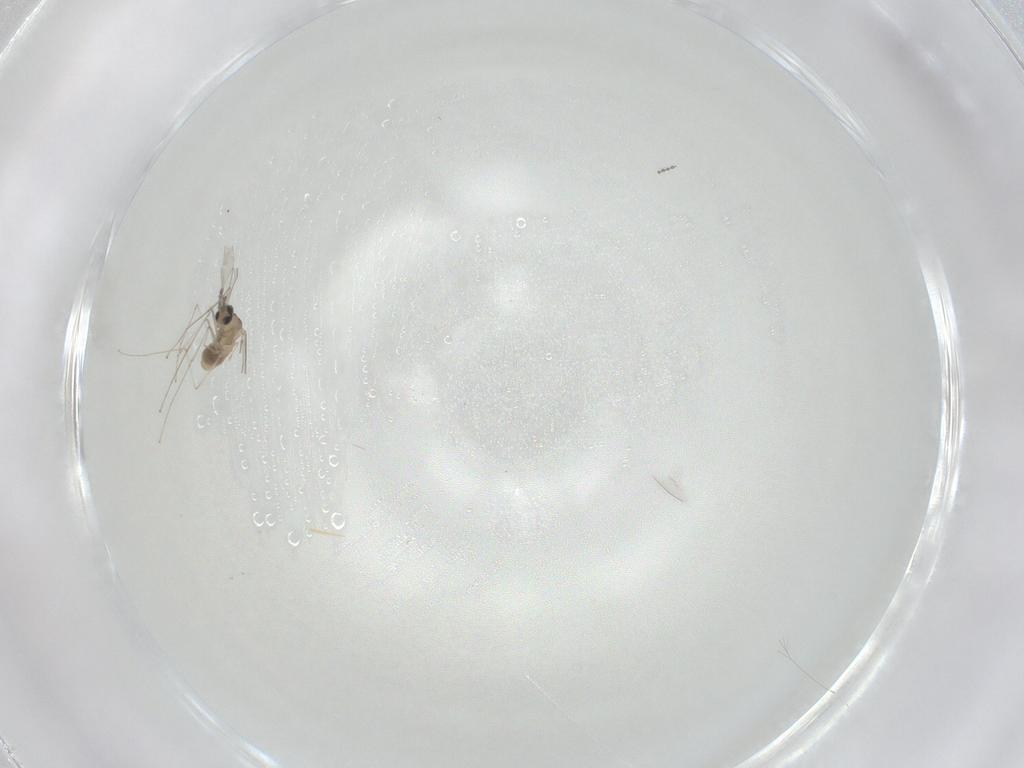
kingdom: Animalia
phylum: Arthropoda
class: Insecta
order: Diptera
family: Cecidomyiidae
